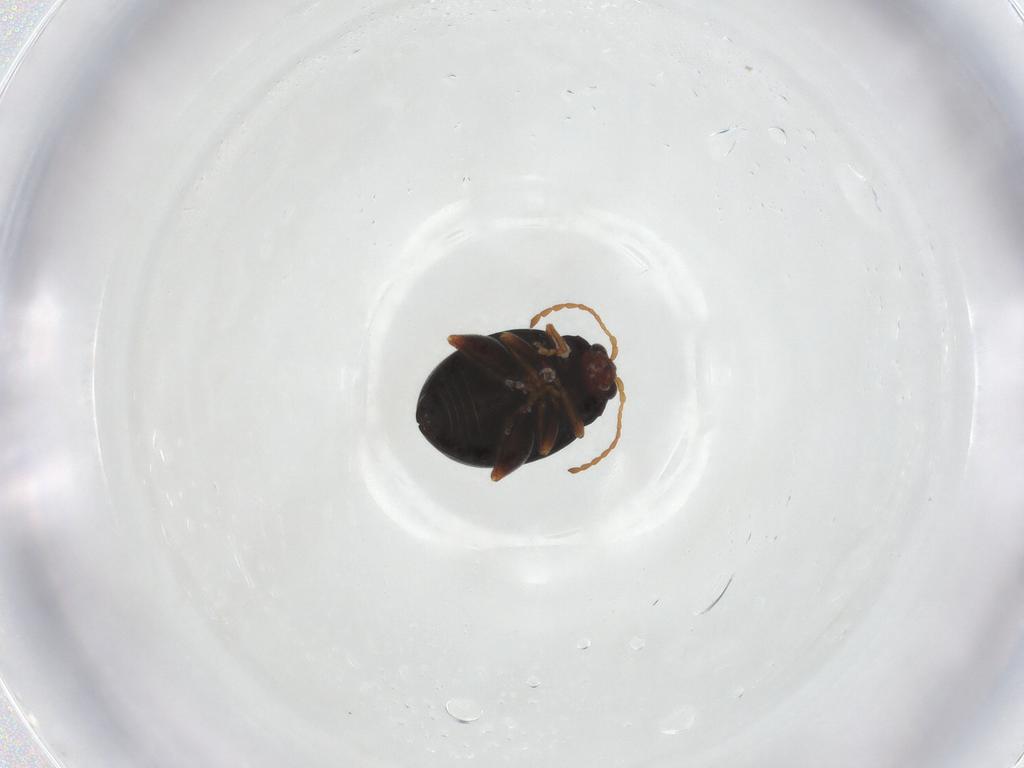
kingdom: Animalia
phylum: Arthropoda
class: Insecta
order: Coleoptera
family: Chrysomelidae
